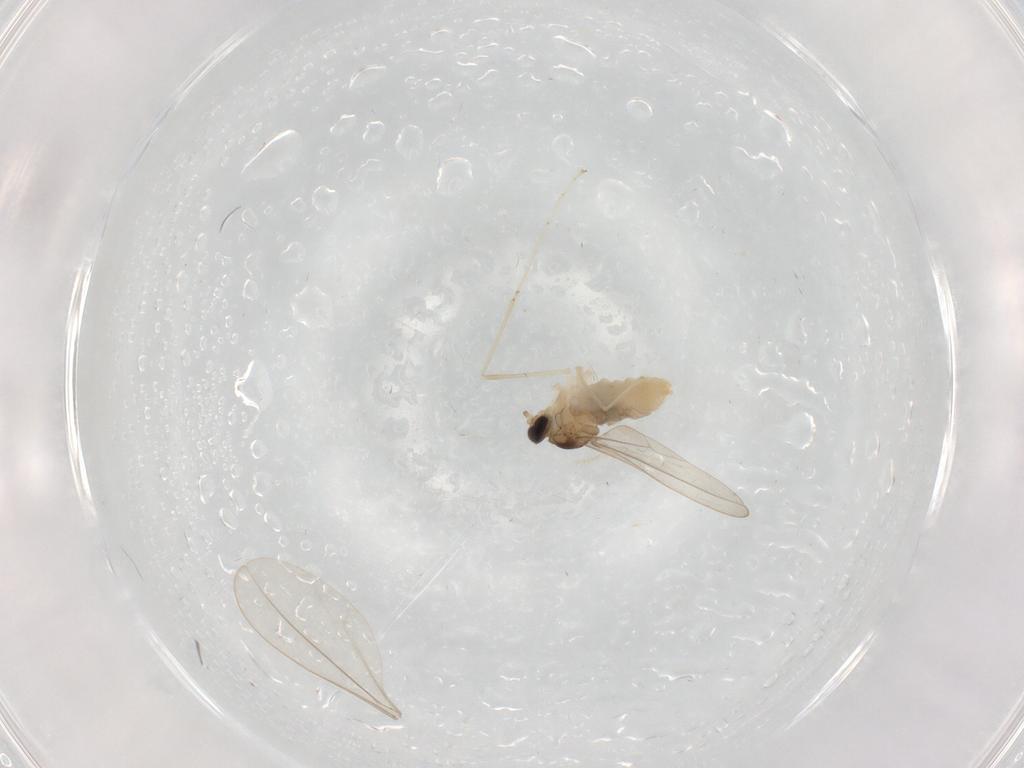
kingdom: Animalia
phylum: Arthropoda
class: Insecta
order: Diptera
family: Cecidomyiidae
